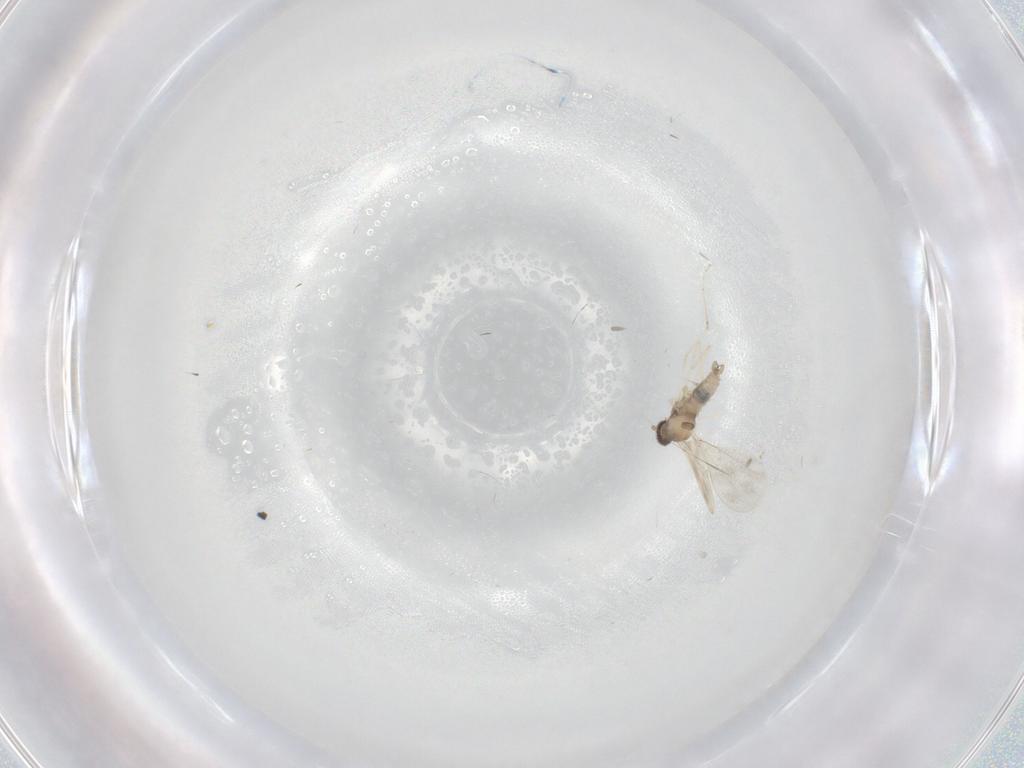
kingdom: Animalia
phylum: Arthropoda
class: Insecta
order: Diptera
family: Cecidomyiidae
